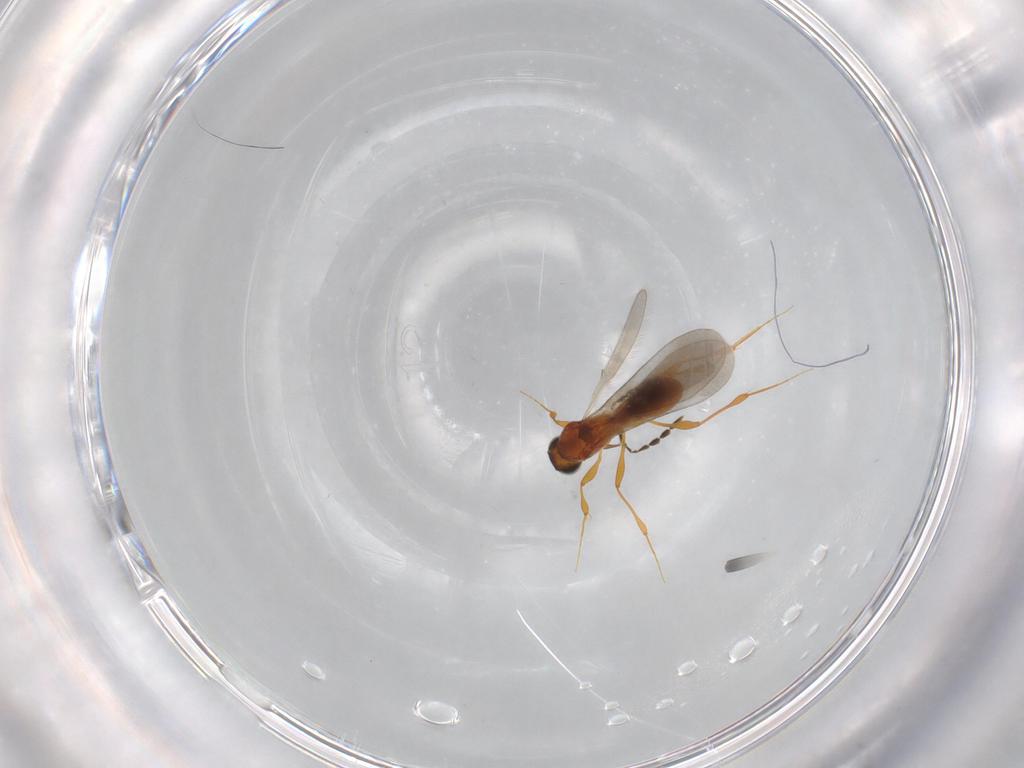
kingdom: Animalia
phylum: Arthropoda
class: Insecta
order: Hymenoptera
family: Platygastridae
